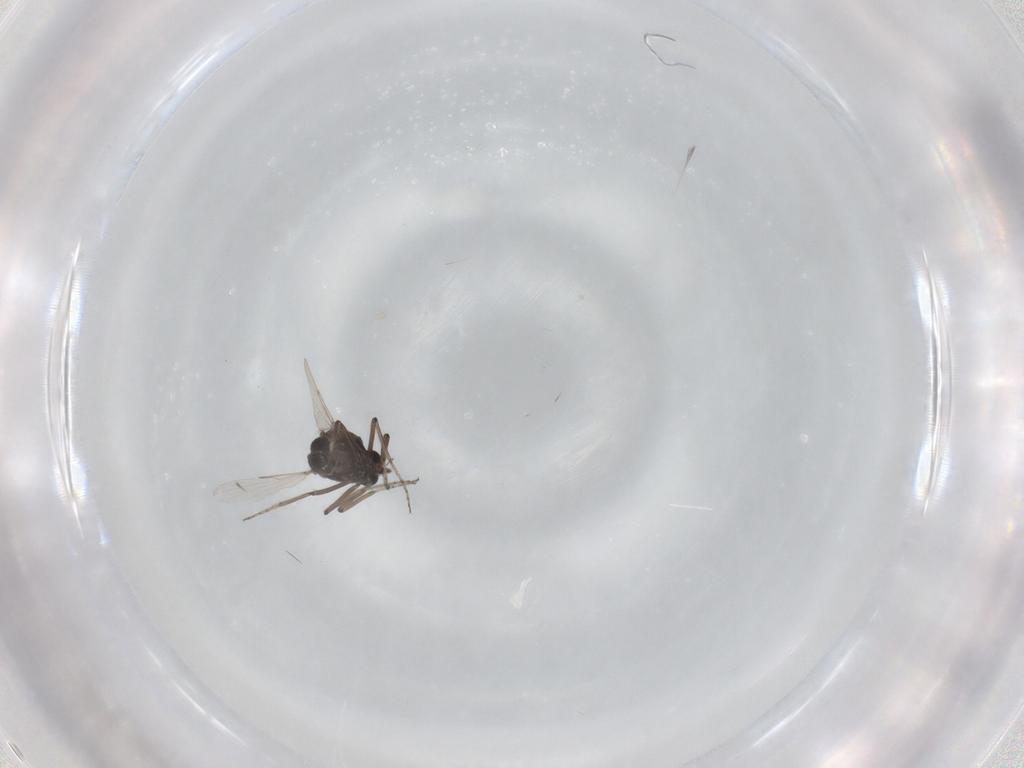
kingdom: Animalia
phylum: Arthropoda
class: Insecta
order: Diptera
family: Ceratopogonidae
